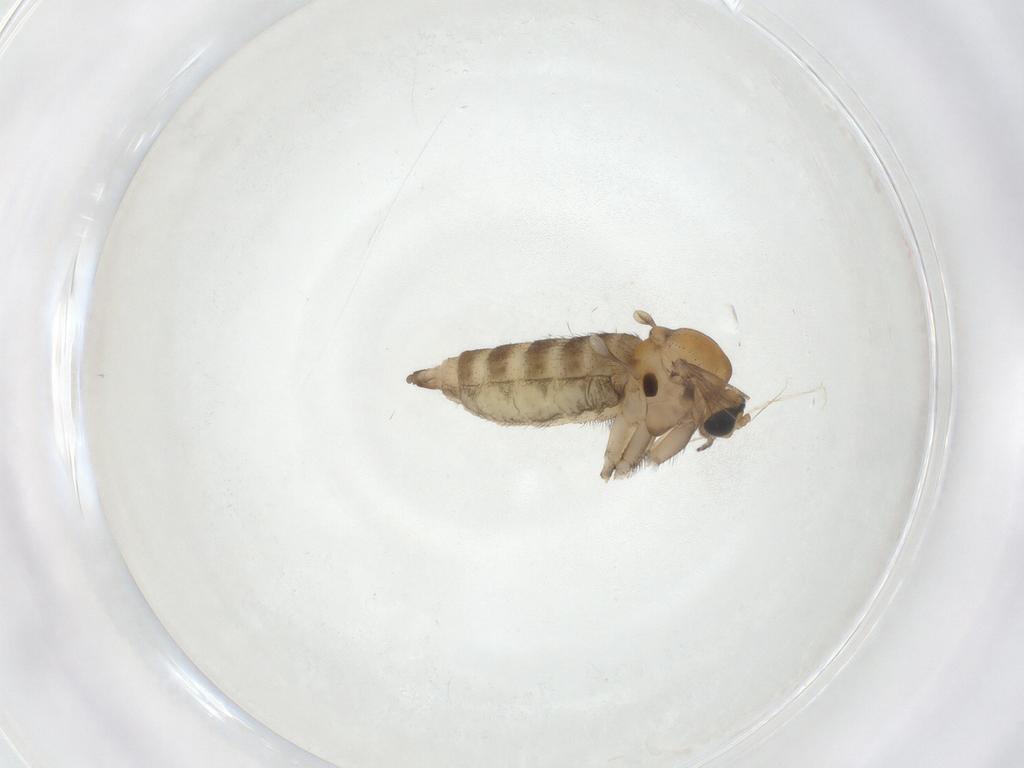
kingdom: Animalia
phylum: Arthropoda
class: Insecta
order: Diptera
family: Sciaridae
